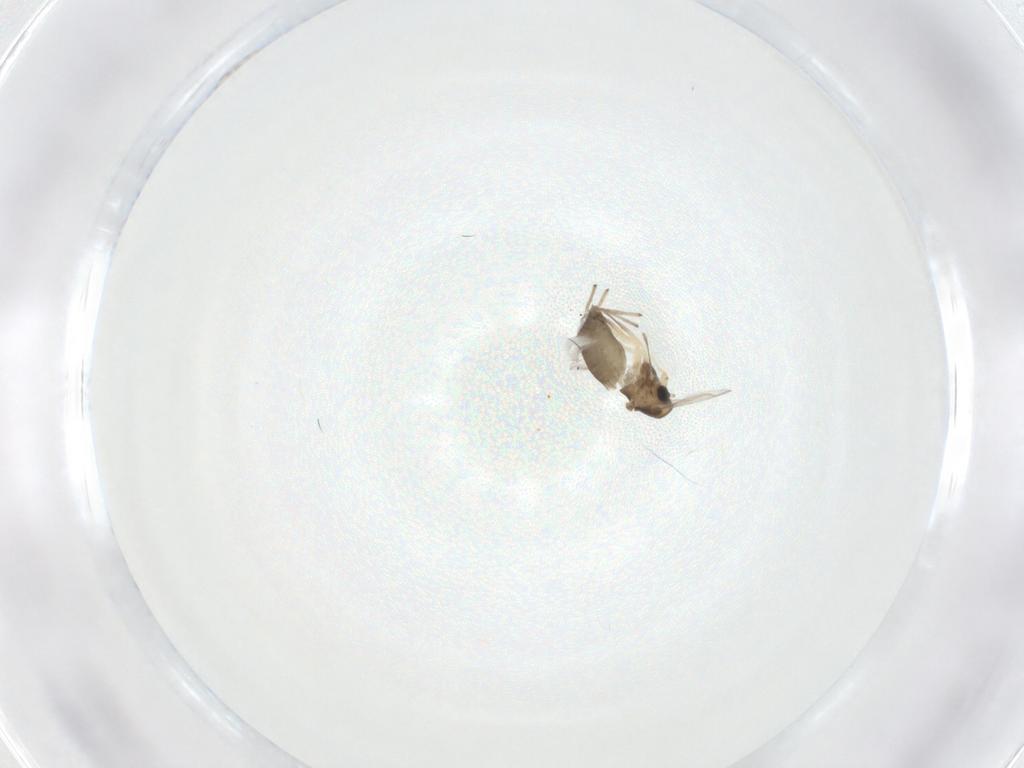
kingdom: Animalia
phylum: Arthropoda
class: Insecta
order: Diptera
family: Chironomidae
